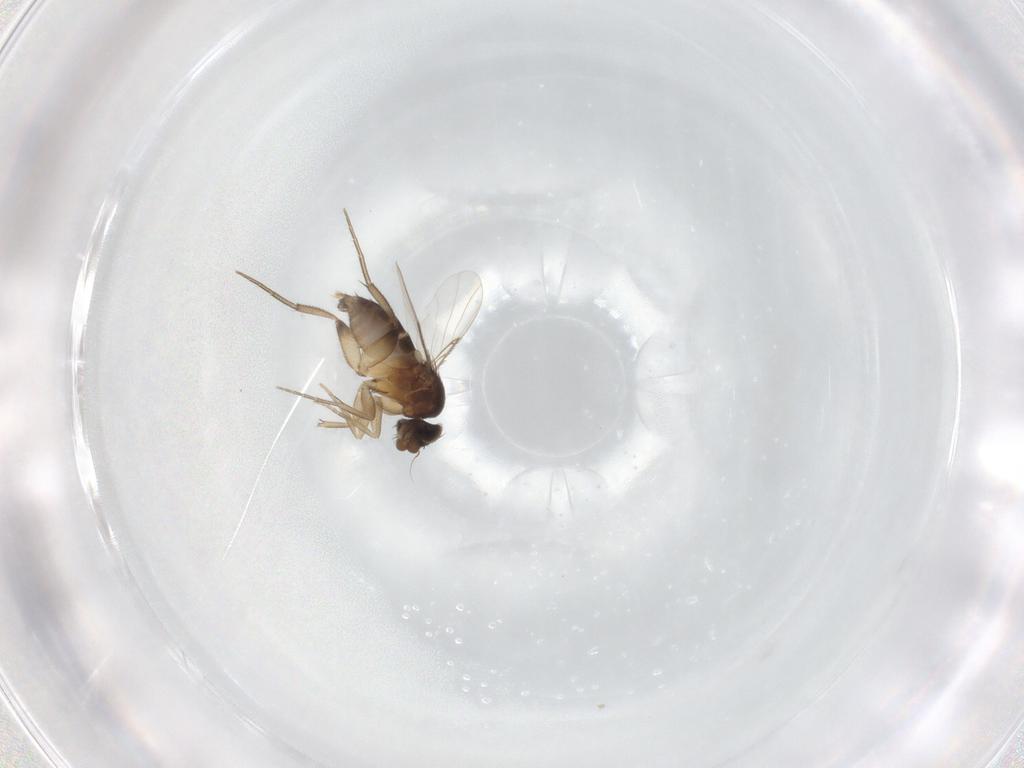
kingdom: Animalia
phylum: Arthropoda
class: Insecta
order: Diptera
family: Phoridae
